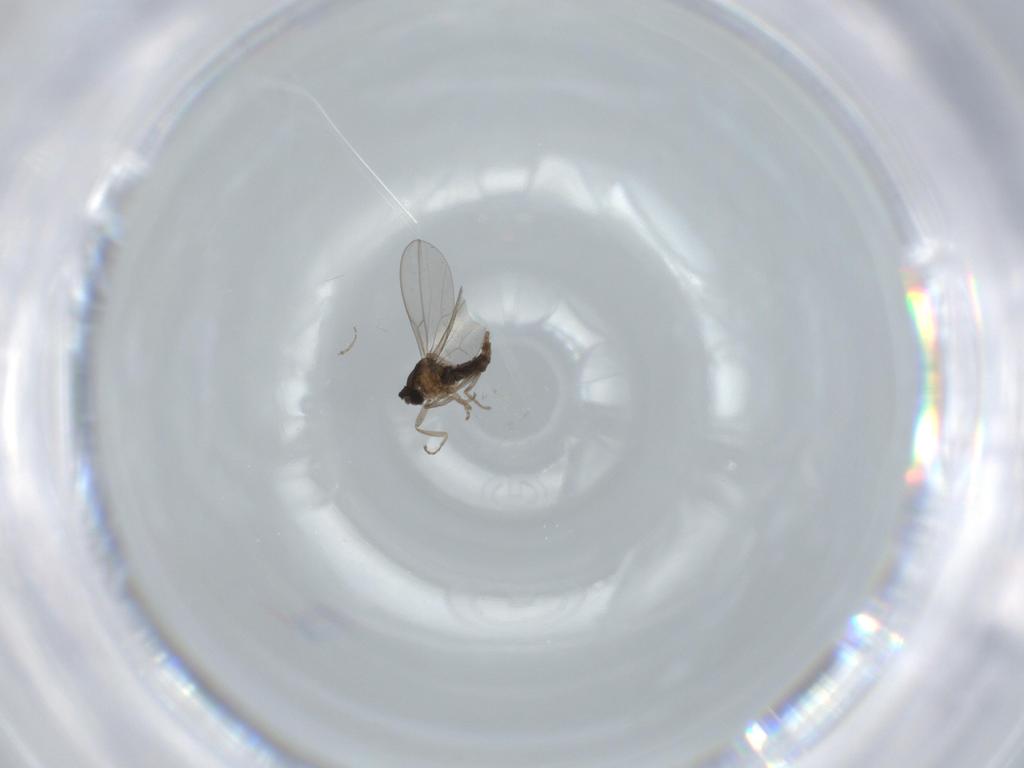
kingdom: Animalia
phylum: Arthropoda
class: Insecta
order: Diptera
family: Cecidomyiidae
